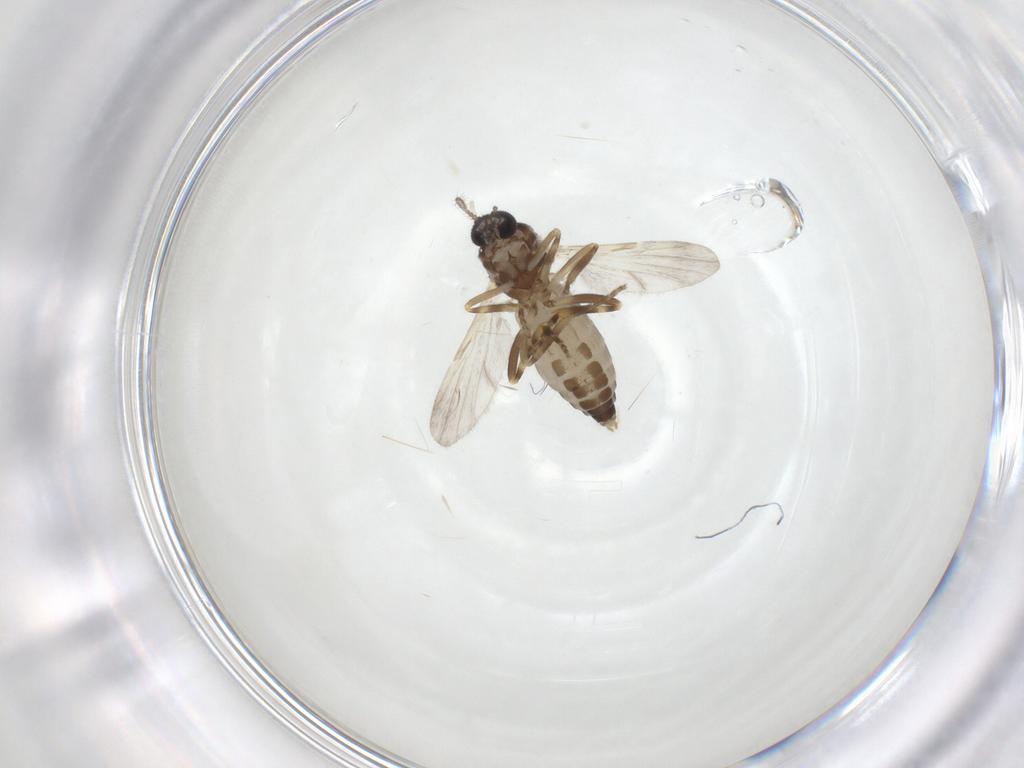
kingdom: Animalia
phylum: Arthropoda
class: Insecta
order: Diptera
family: Ceratopogonidae
